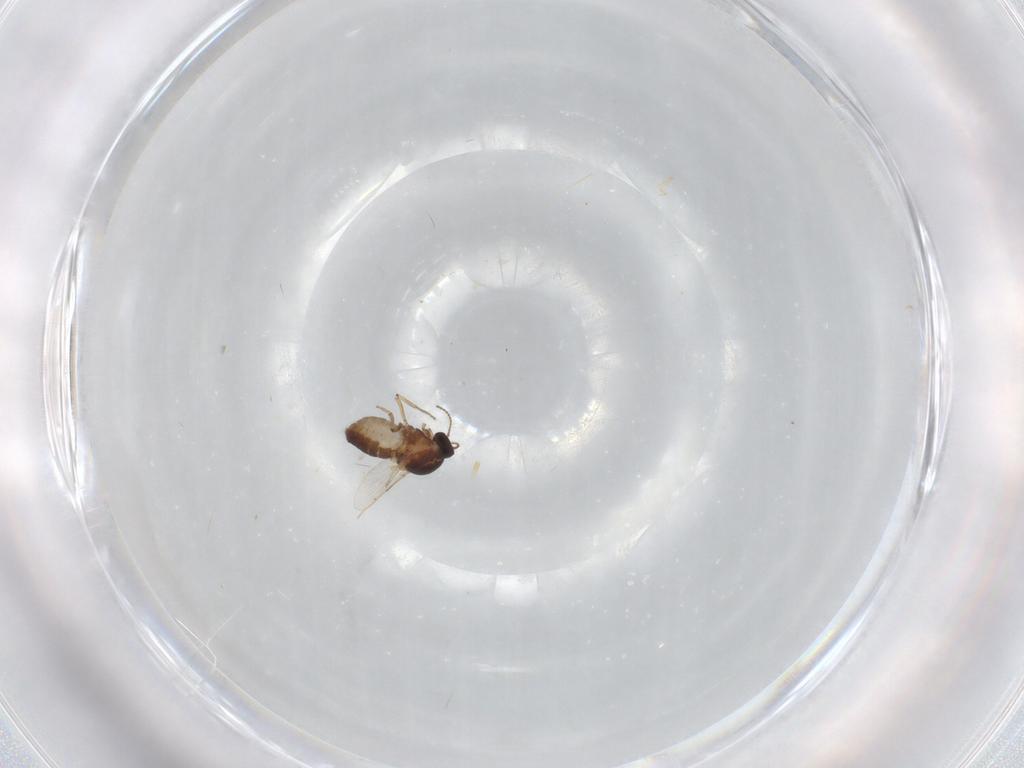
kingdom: Animalia
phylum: Arthropoda
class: Insecta
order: Diptera
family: Ceratopogonidae
